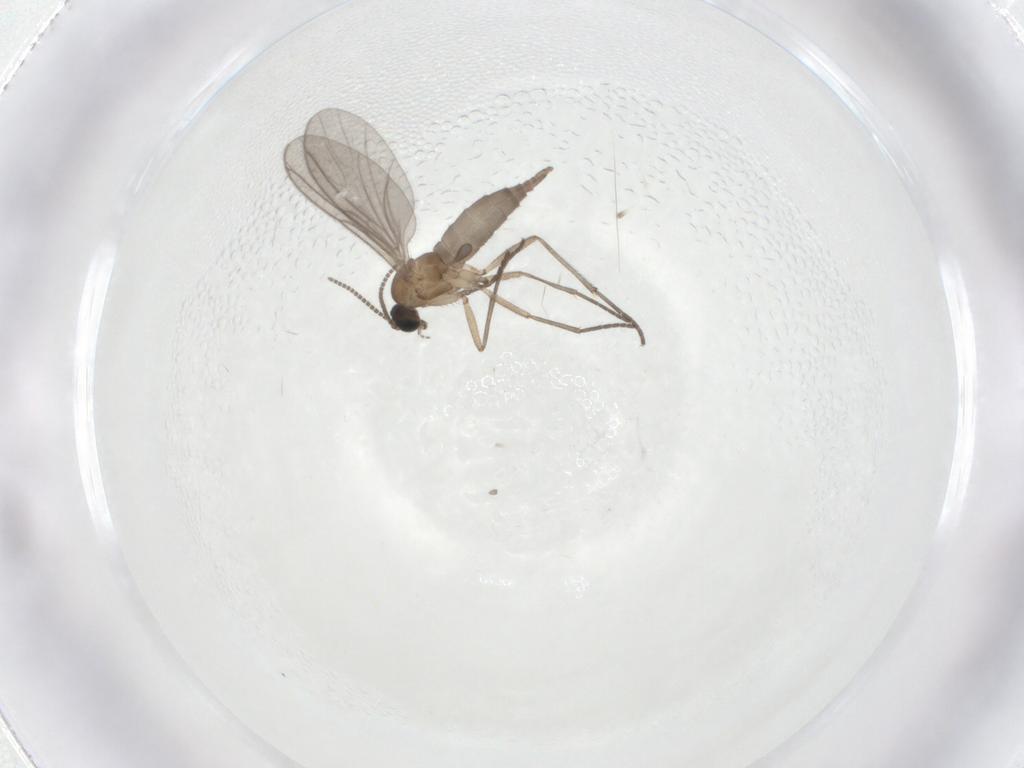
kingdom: Animalia
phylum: Arthropoda
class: Insecta
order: Diptera
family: Sciaridae
